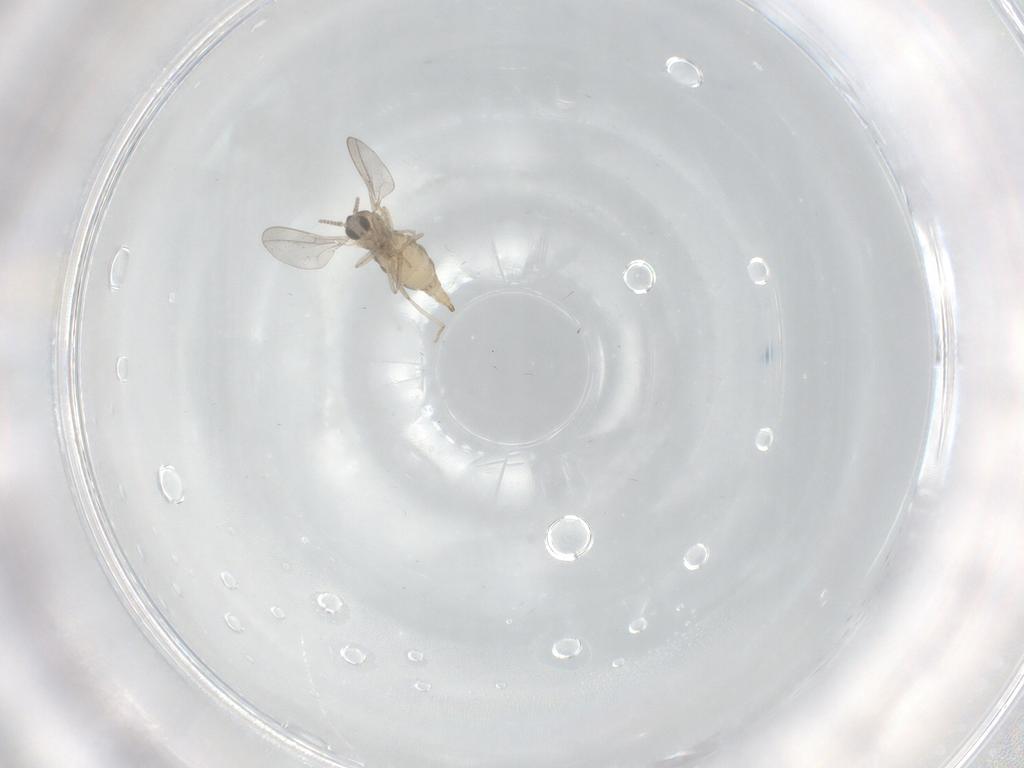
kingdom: Animalia
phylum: Arthropoda
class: Insecta
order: Diptera
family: Cecidomyiidae
